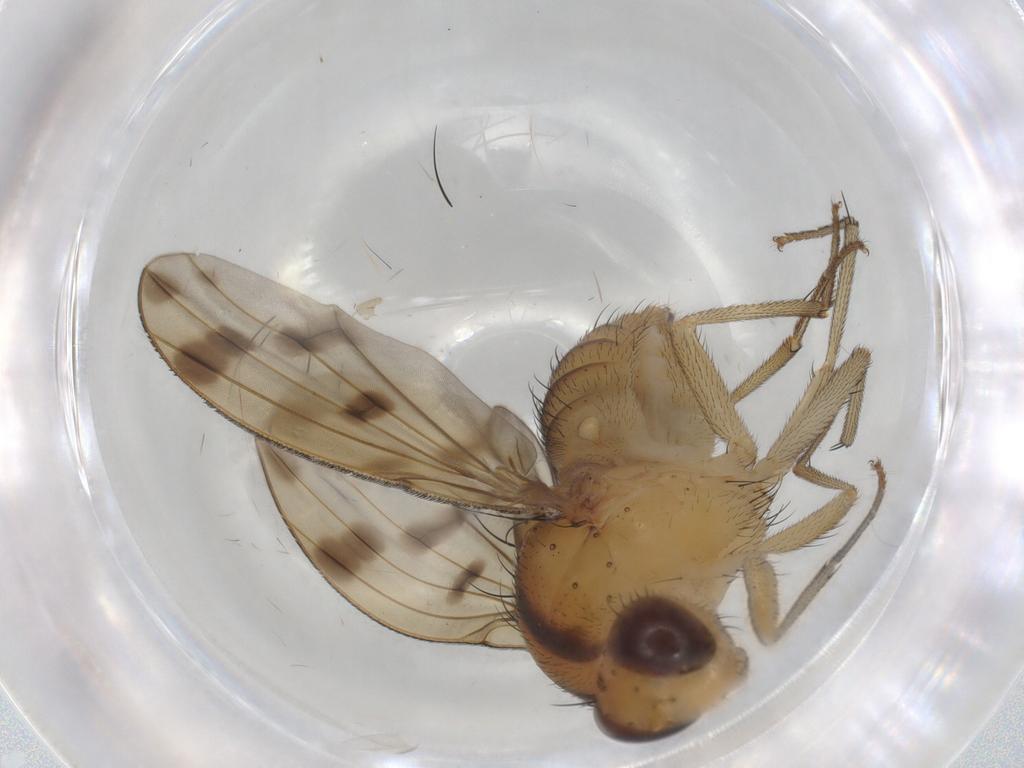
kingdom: Animalia
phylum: Arthropoda
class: Insecta
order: Diptera
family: Lauxaniidae
